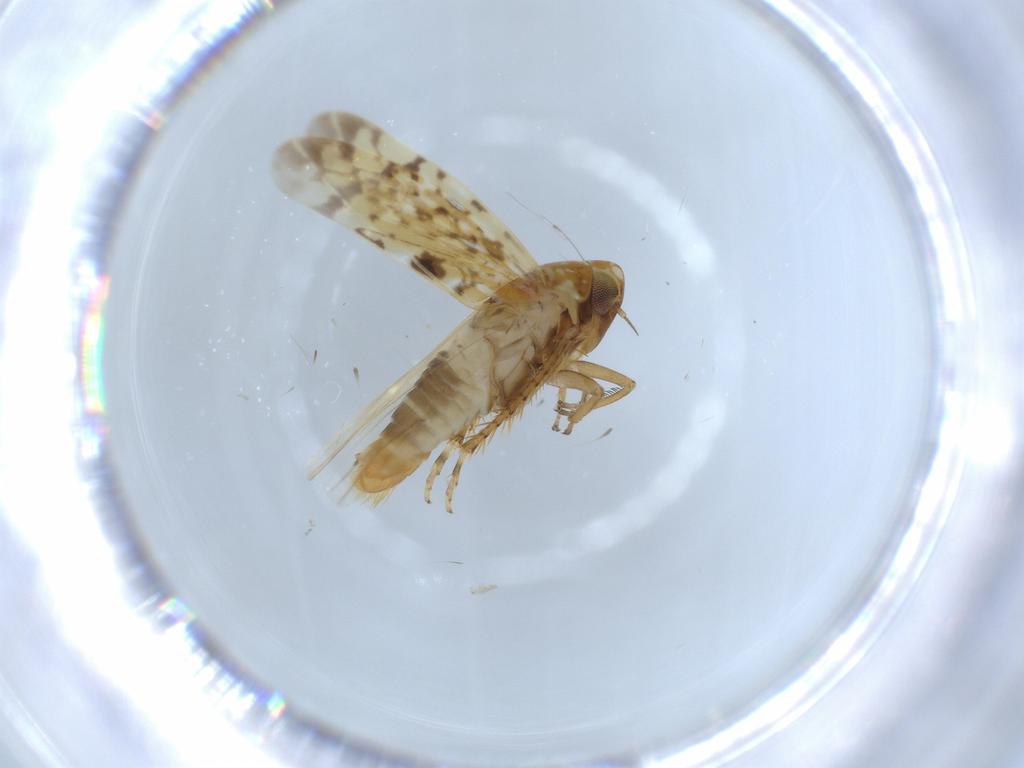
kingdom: Animalia
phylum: Arthropoda
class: Insecta
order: Hemiptera
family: Cicadellidae
